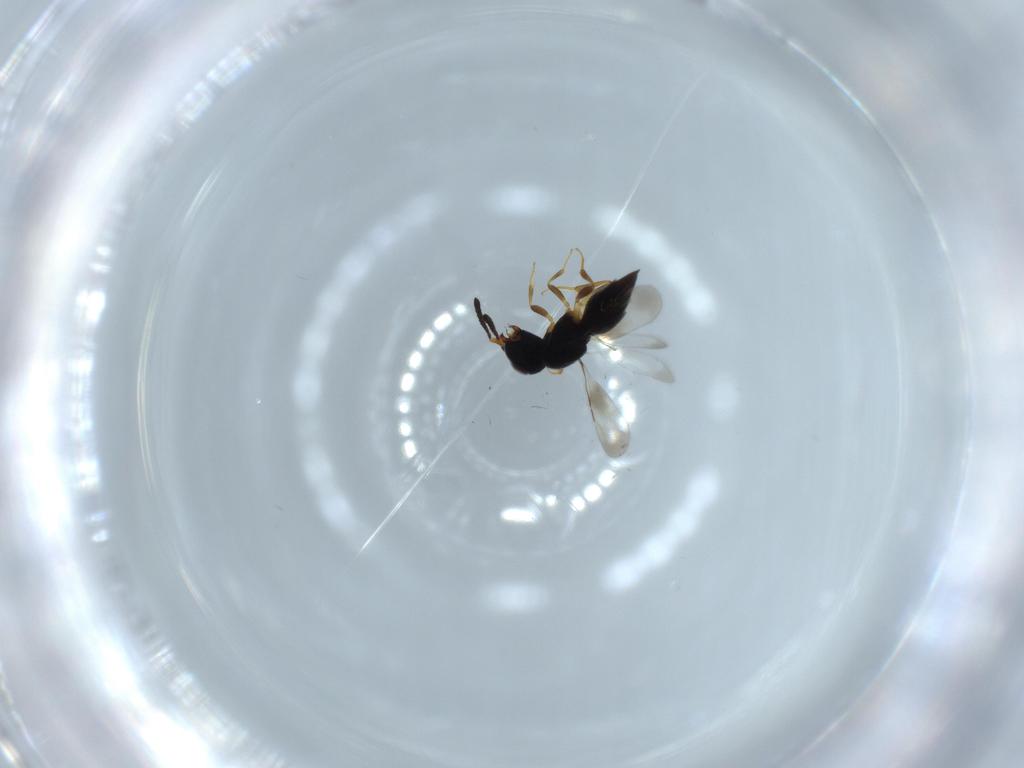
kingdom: Animalia
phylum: Arthropoda
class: Insecta
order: Hymenoptera
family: Ceraphronidae
